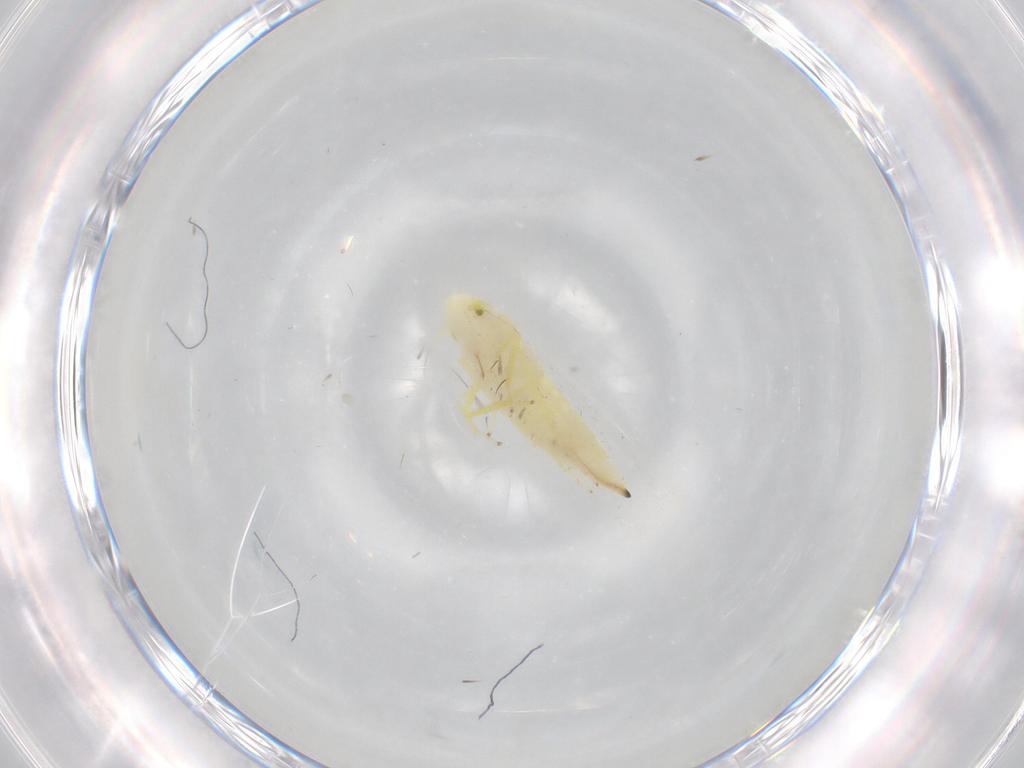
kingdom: Animalia
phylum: Arthropoda
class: Insecta
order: Hemiptera
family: Cicadellidae
